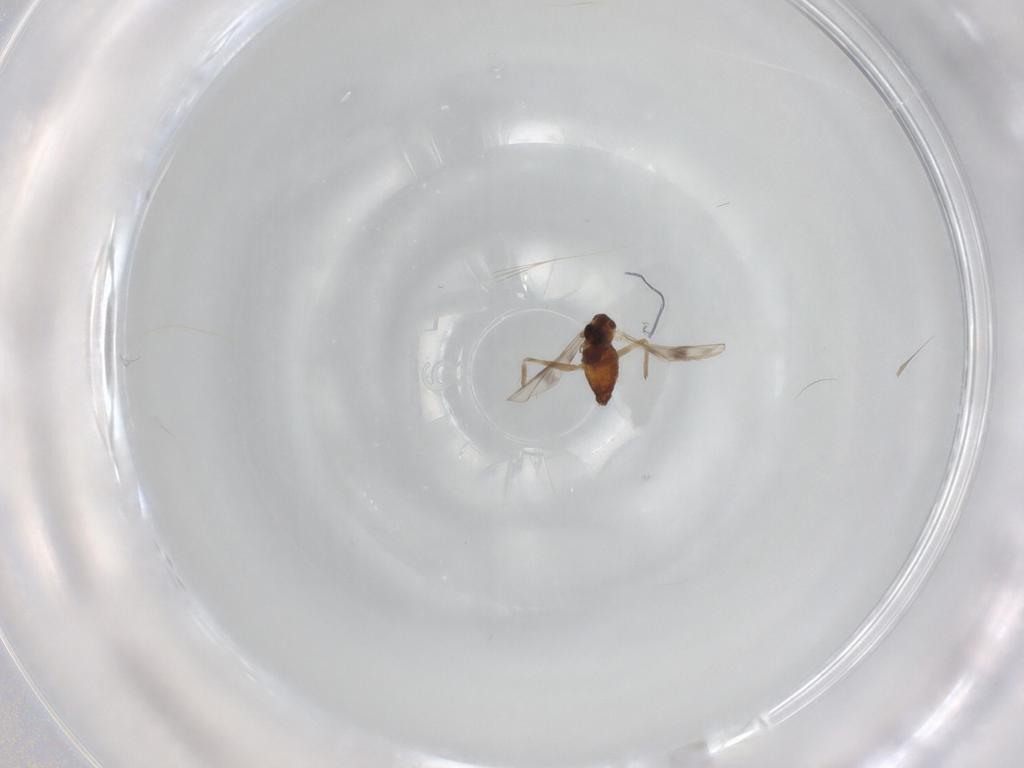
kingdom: Animalia
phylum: Arthropoda
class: Insecta
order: Diptera
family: Chironomidae
